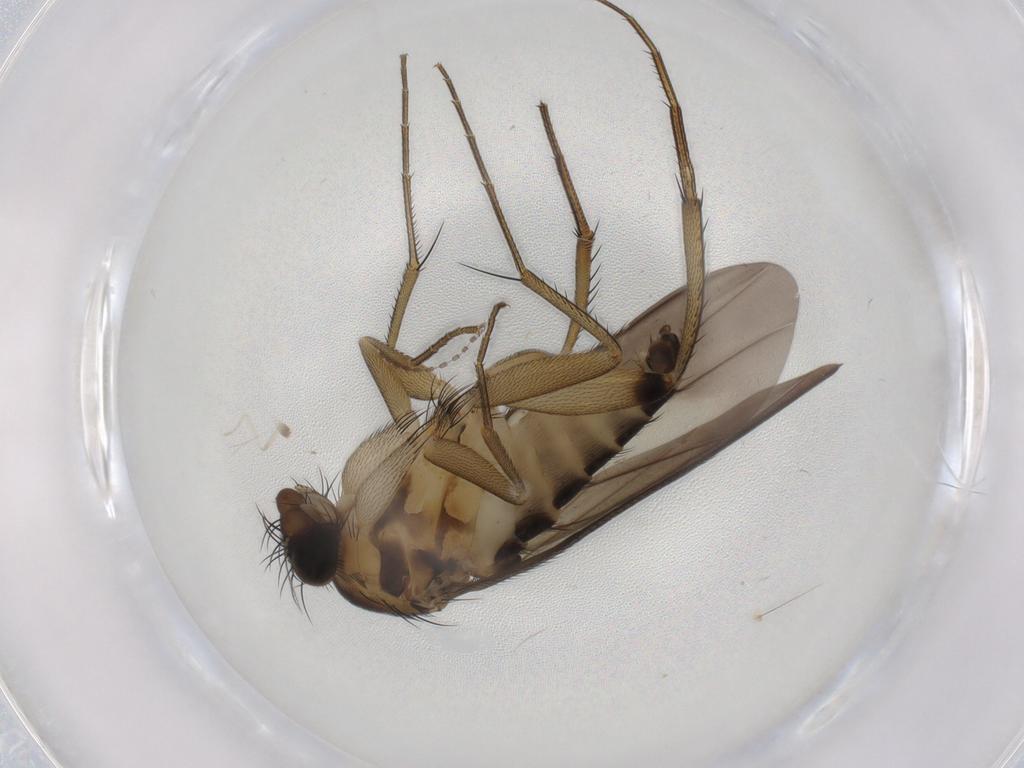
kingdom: Animalia
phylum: Arthropoda
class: Insecta
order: Diptera
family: Phoridae
